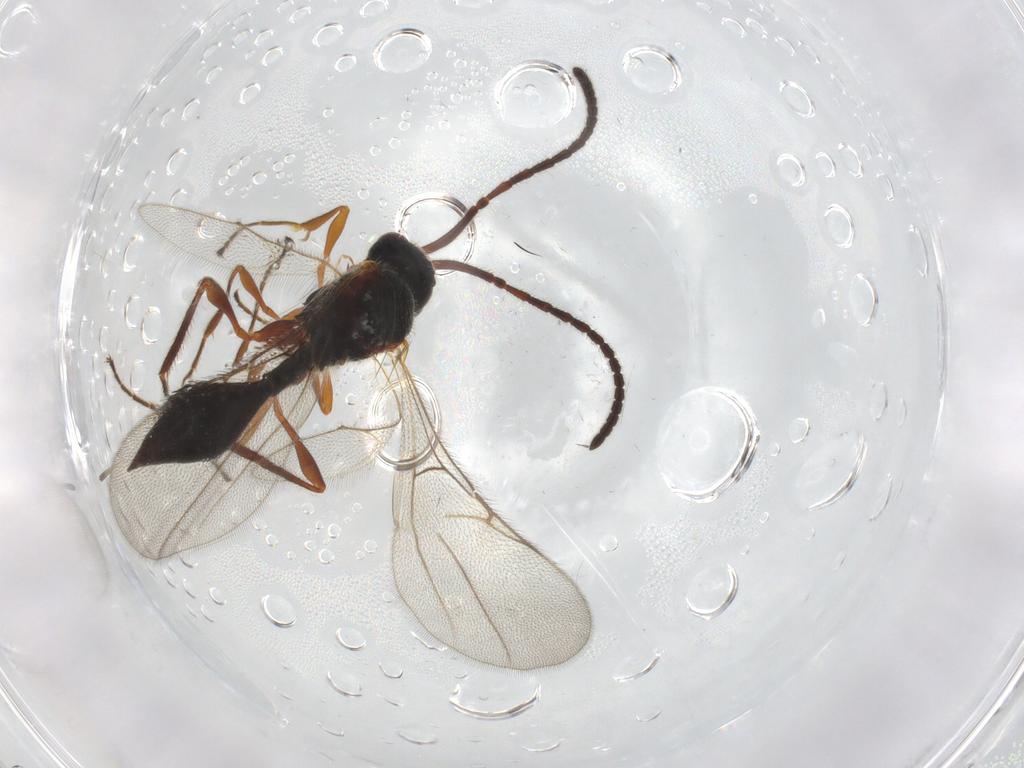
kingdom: Animalia
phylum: Arthropoda
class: Insecta
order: Hymenoptera
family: Diapriidae
